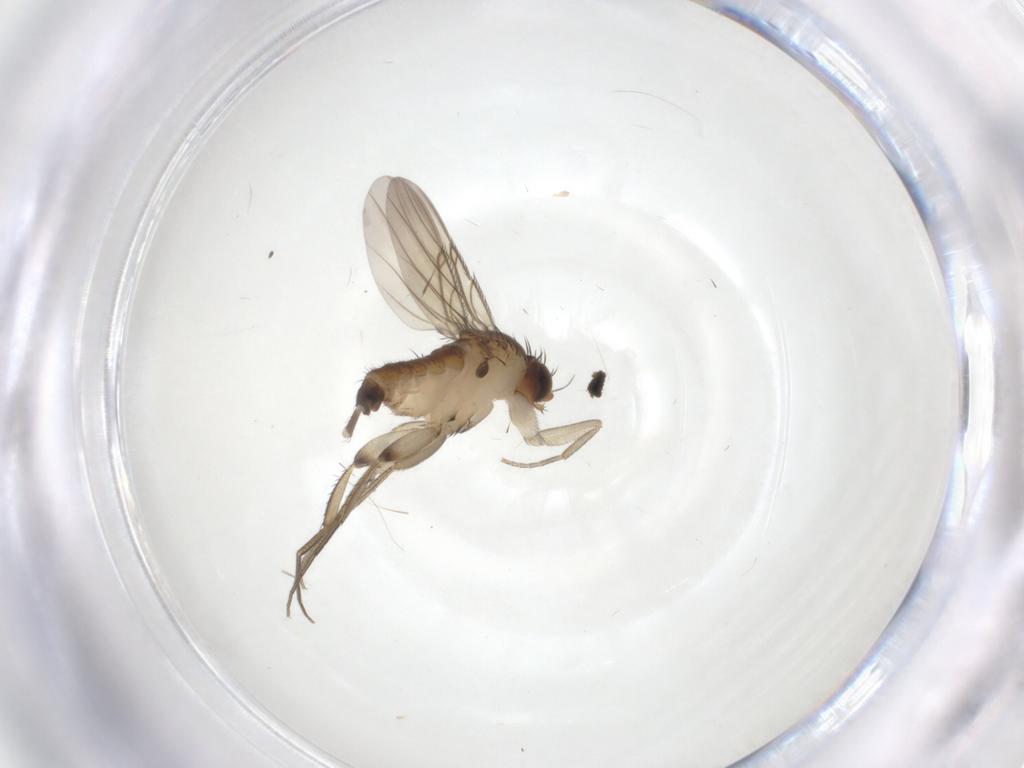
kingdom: Animalia
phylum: Arthropoda
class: Insecta
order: Diptera
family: Phoridae
